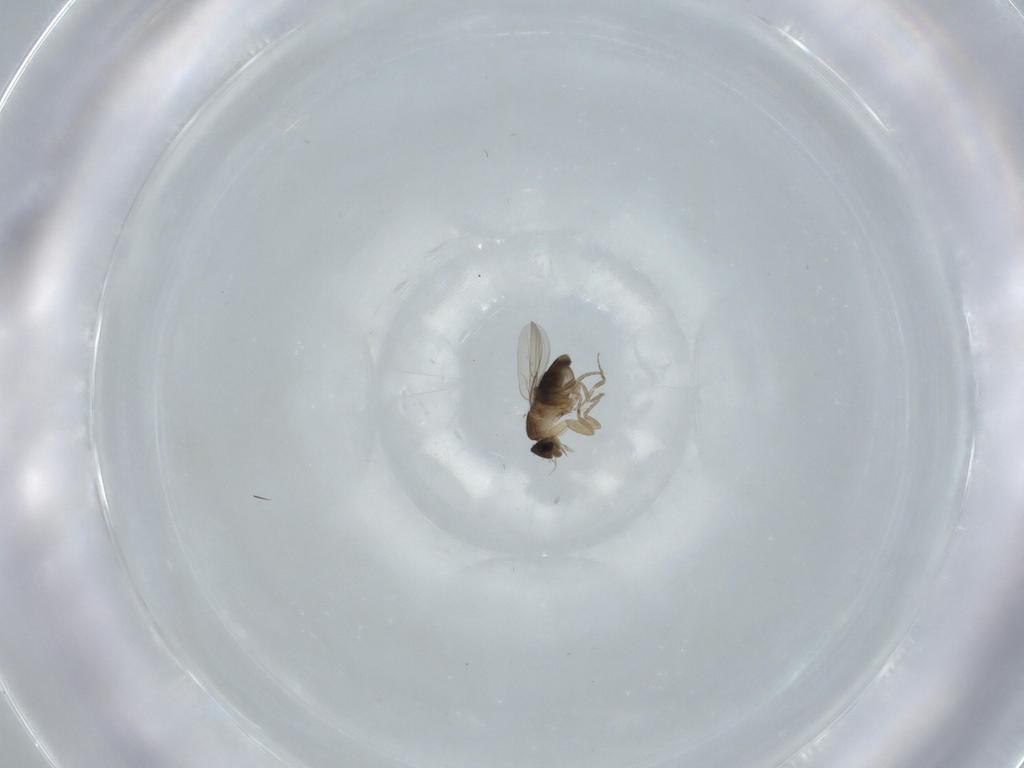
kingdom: Animalia
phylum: Arthropoda
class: Insecta
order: Diptera
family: Phoridae
